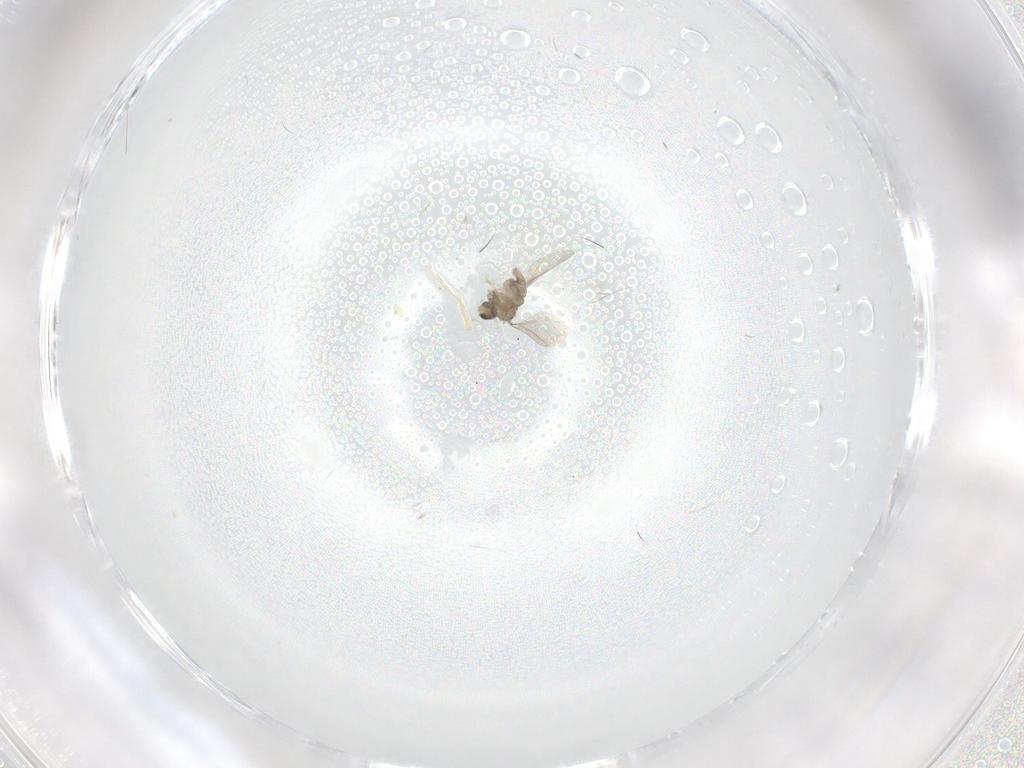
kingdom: Animalia
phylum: Arthropoda
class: Insecta
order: Diptera
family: Cecidomyiidae
